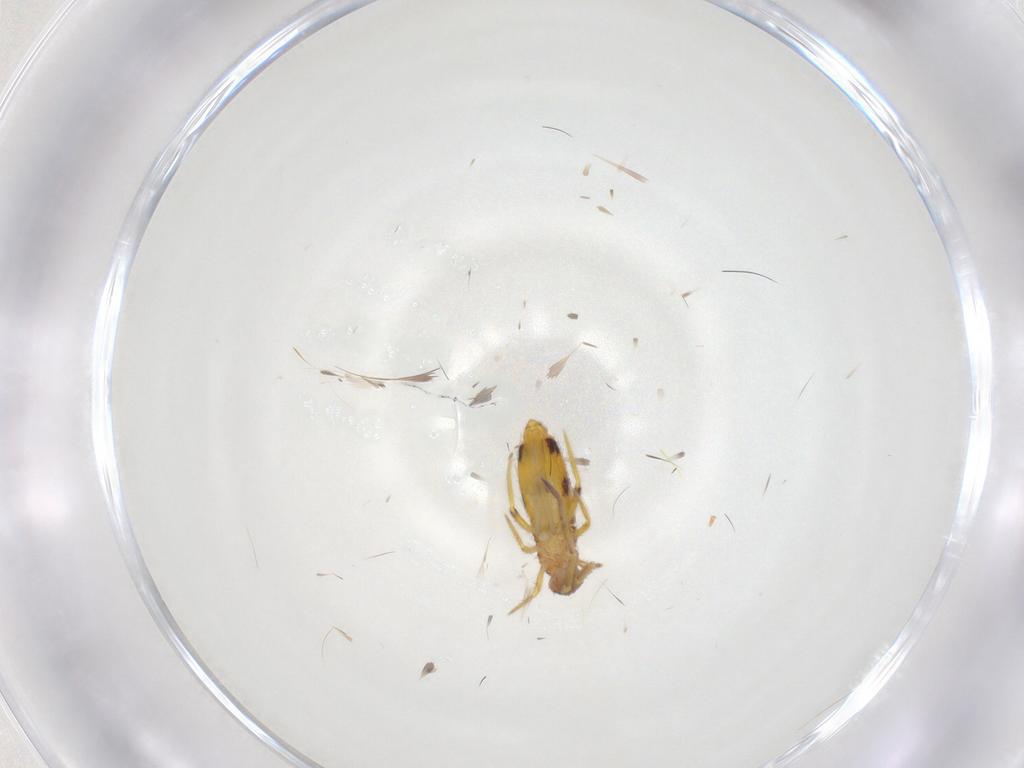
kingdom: Animalia
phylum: Arthropoda
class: Collembola
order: Entomobryomorpha
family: Entomobryidae
